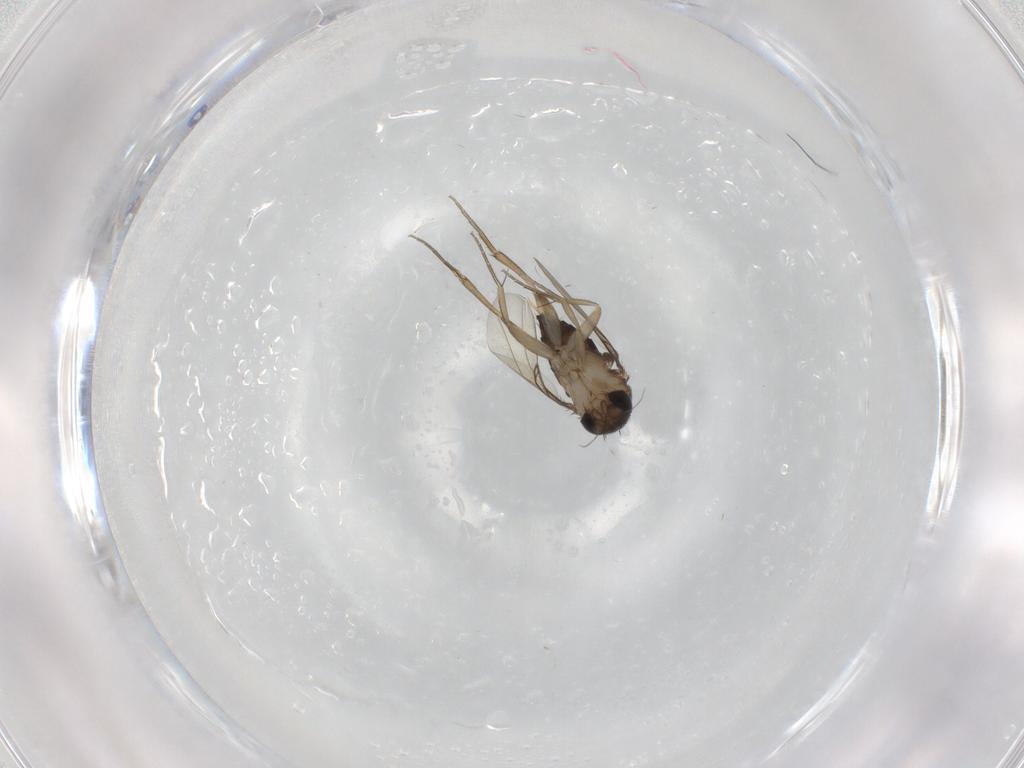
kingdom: Animalia
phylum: Arthropoda
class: Insecta
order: Diptera
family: Phoridae
